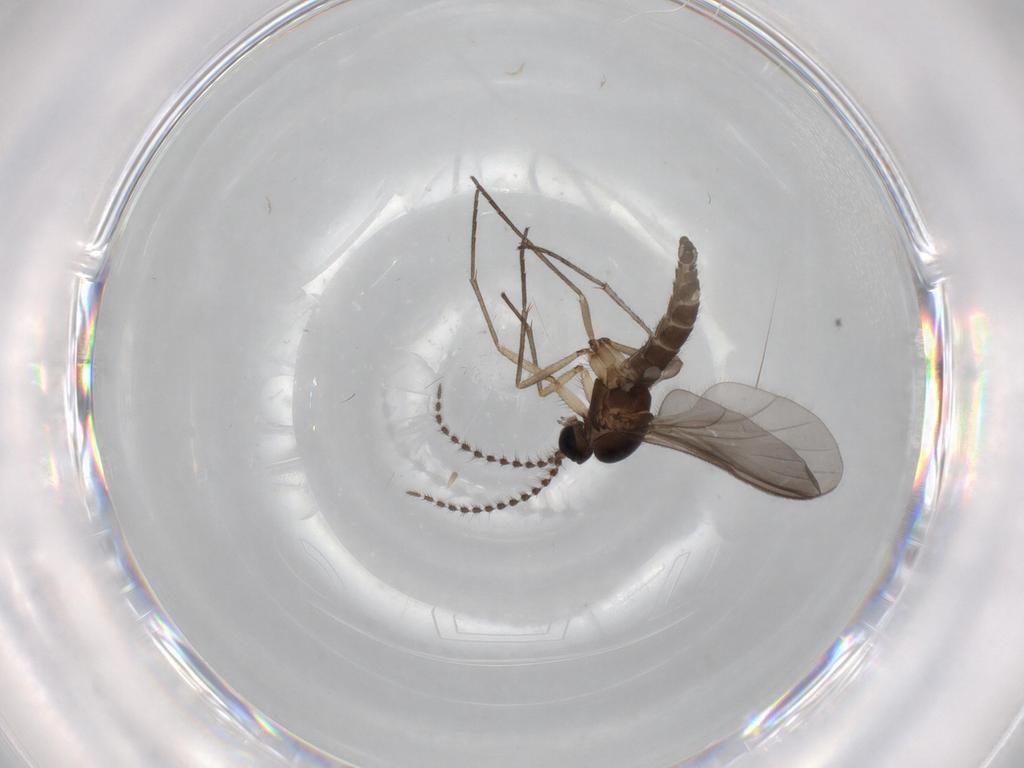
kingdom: Animalia
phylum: Arthropoda
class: Insecta
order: Diptera
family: Sciaridae
